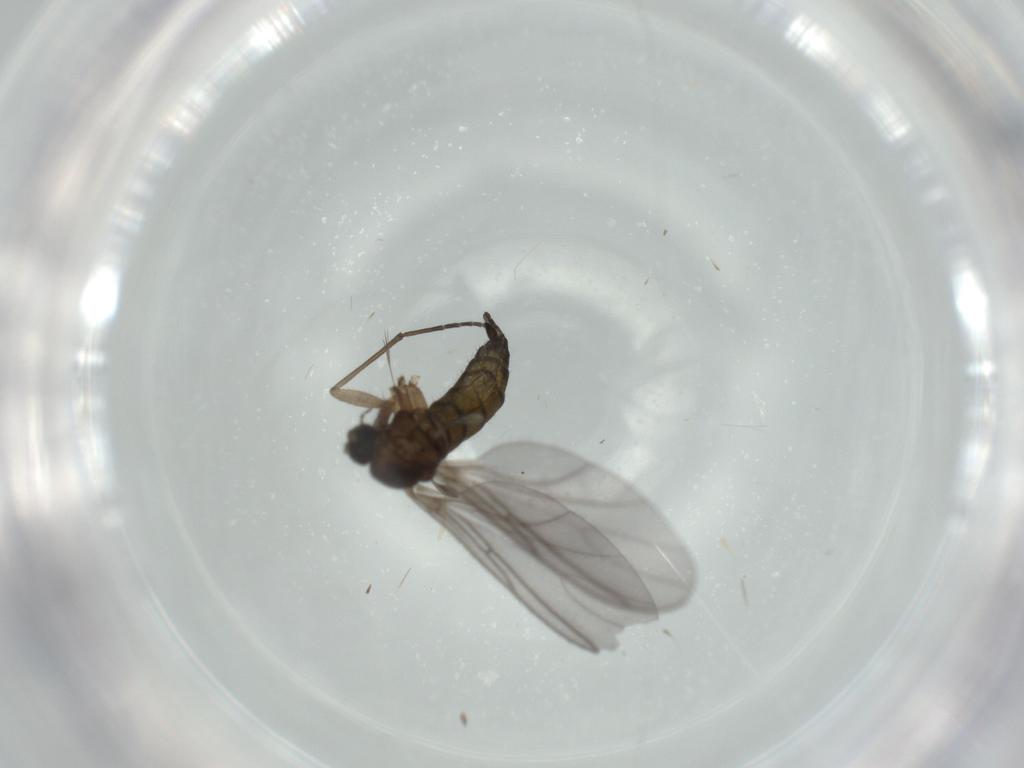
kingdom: Animalia
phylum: Arthropoda
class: Insecta
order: Diptera
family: Sciaridae
